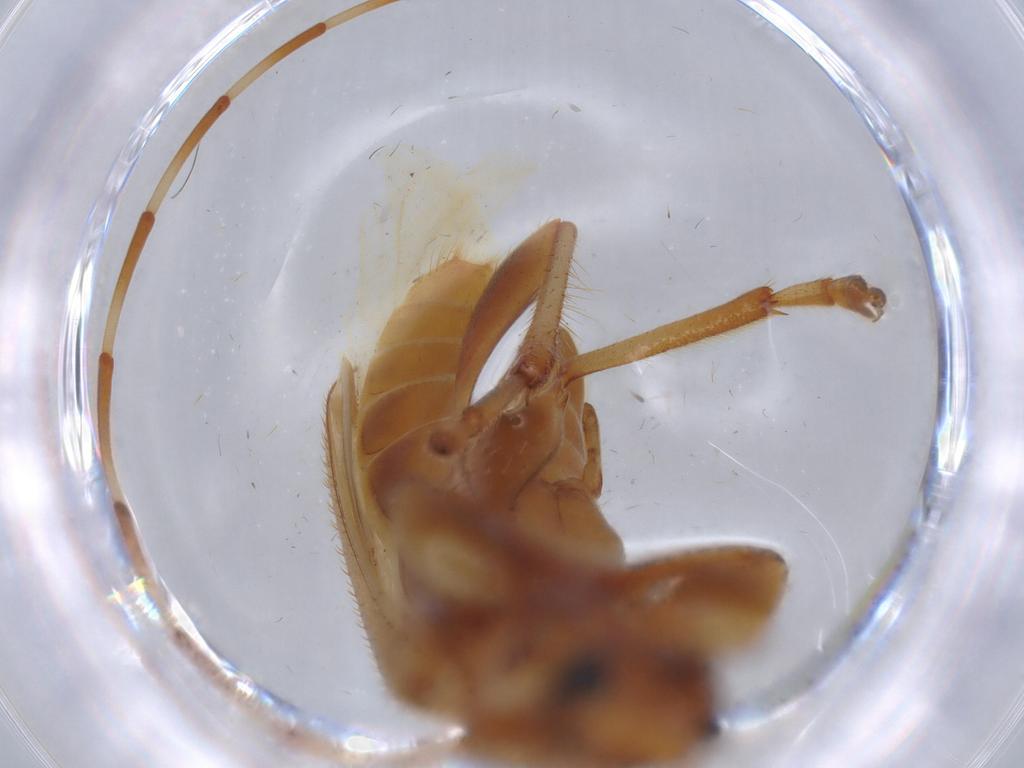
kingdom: Animalia
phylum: Arthropoda
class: Insecta
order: Coleoptera
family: Cerambycidae
